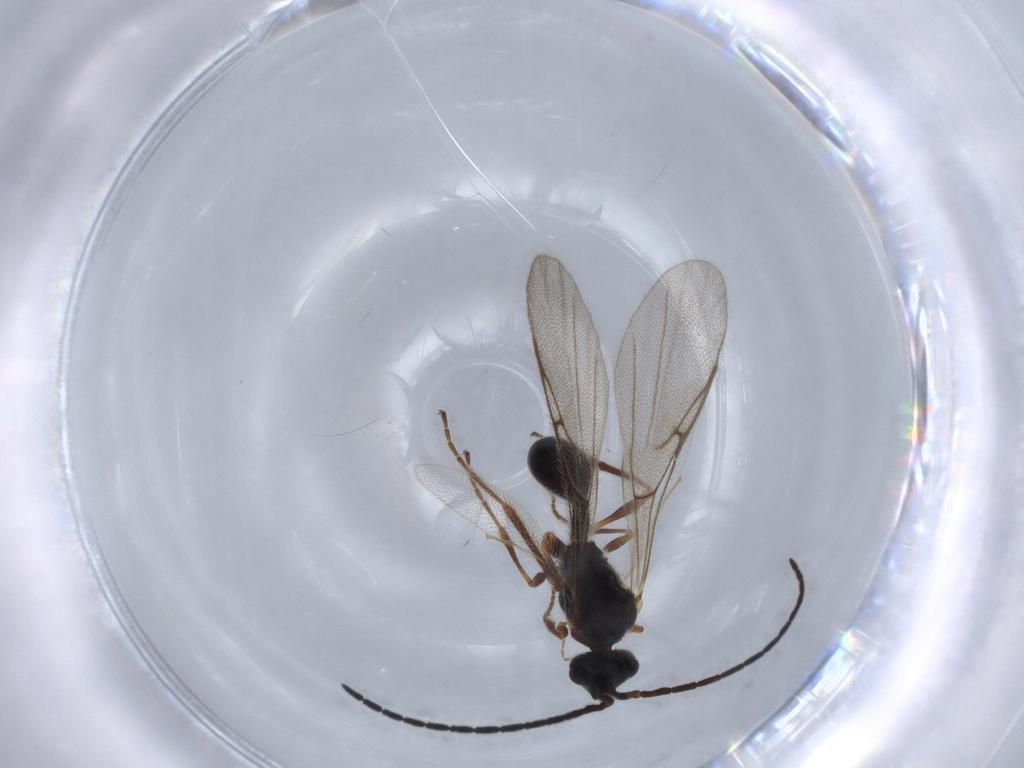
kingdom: Animalia
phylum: Arthropoda
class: Insecta
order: Hymenoptera
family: Diapriidae
